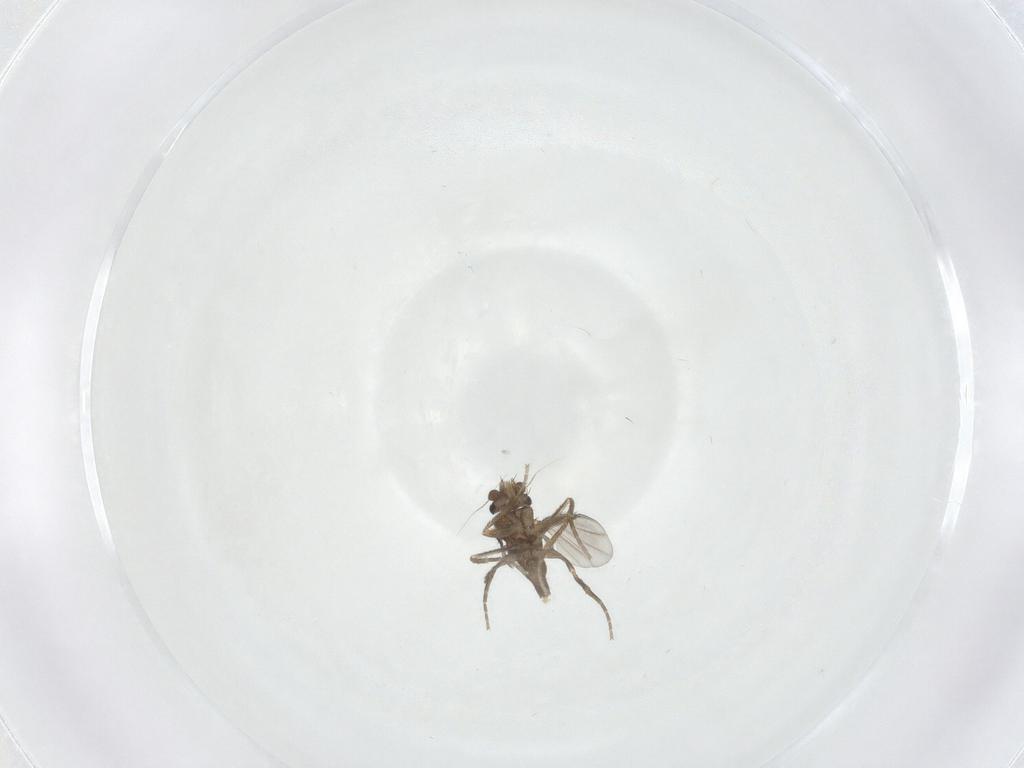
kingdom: Animalia
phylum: Arthropoda
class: Insecta
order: Diptera
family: Phoridae
